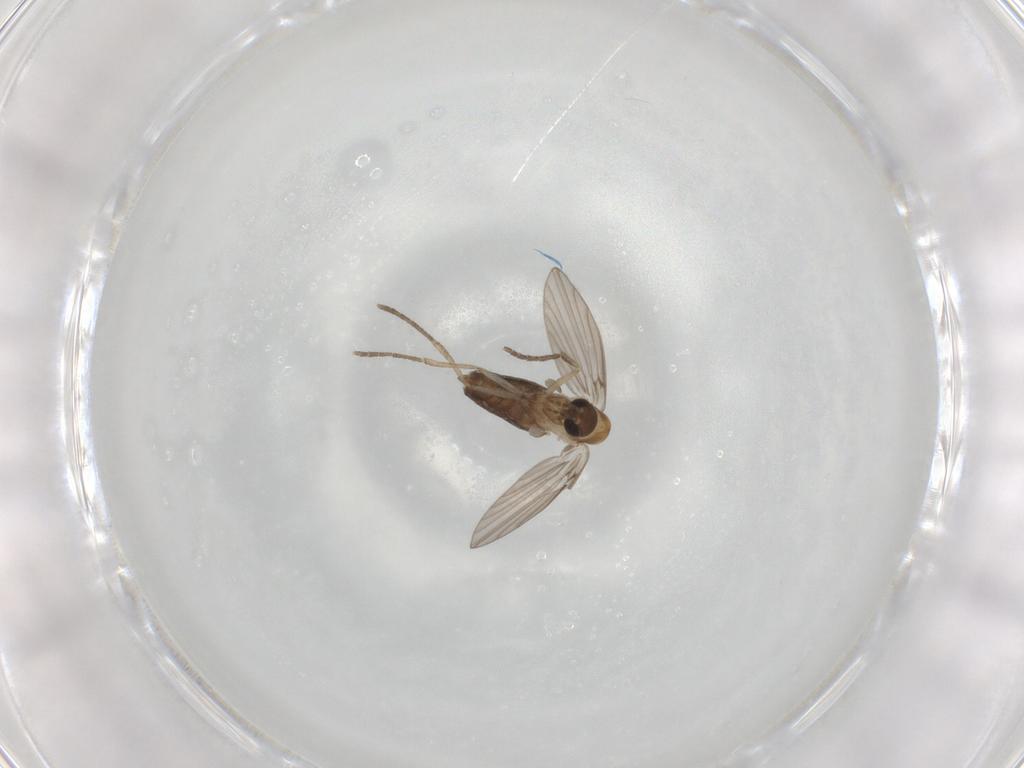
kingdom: Animalia
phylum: Arthropoda
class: Insecta
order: Diptera
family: Psychodidae
